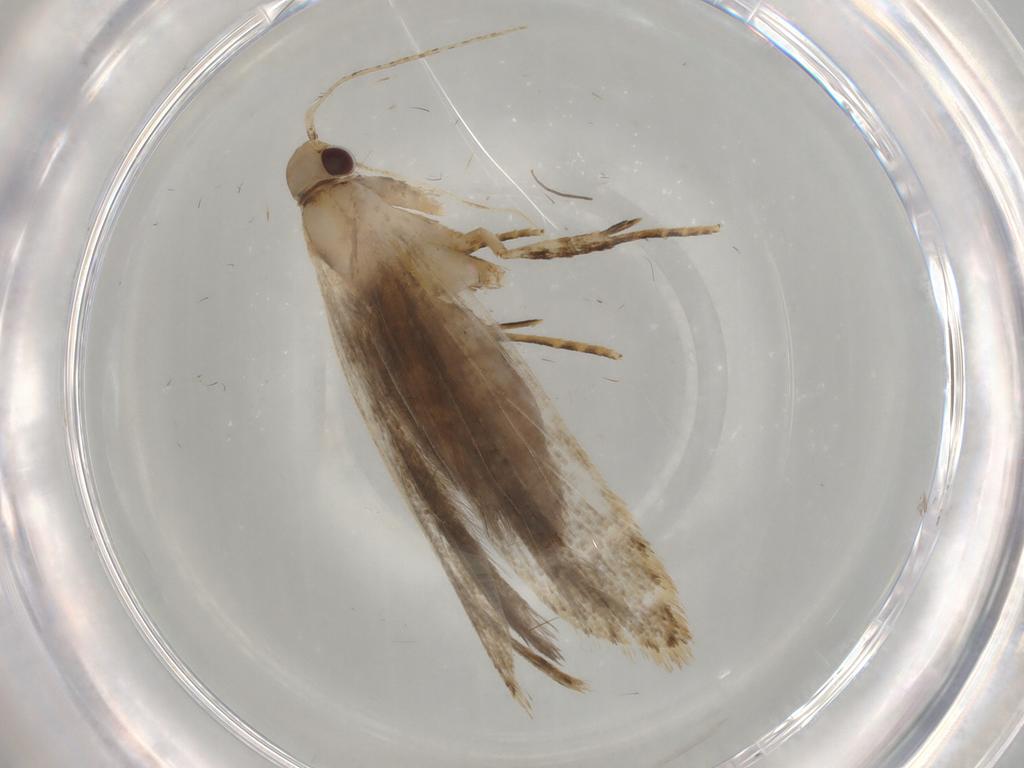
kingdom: Animalia
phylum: Arthropoda
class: Insecta
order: Lepidoptera
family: Gelechiidae
